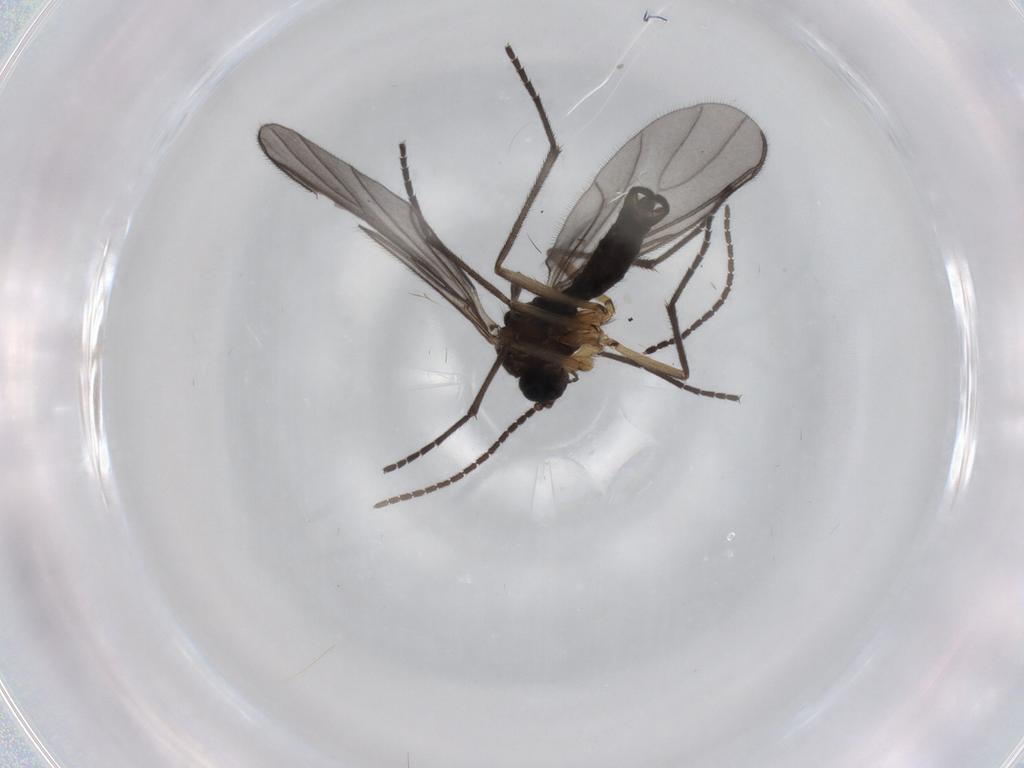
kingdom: Animalia
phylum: Arthropoda
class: Insecta
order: Diptera
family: Sciaridae
